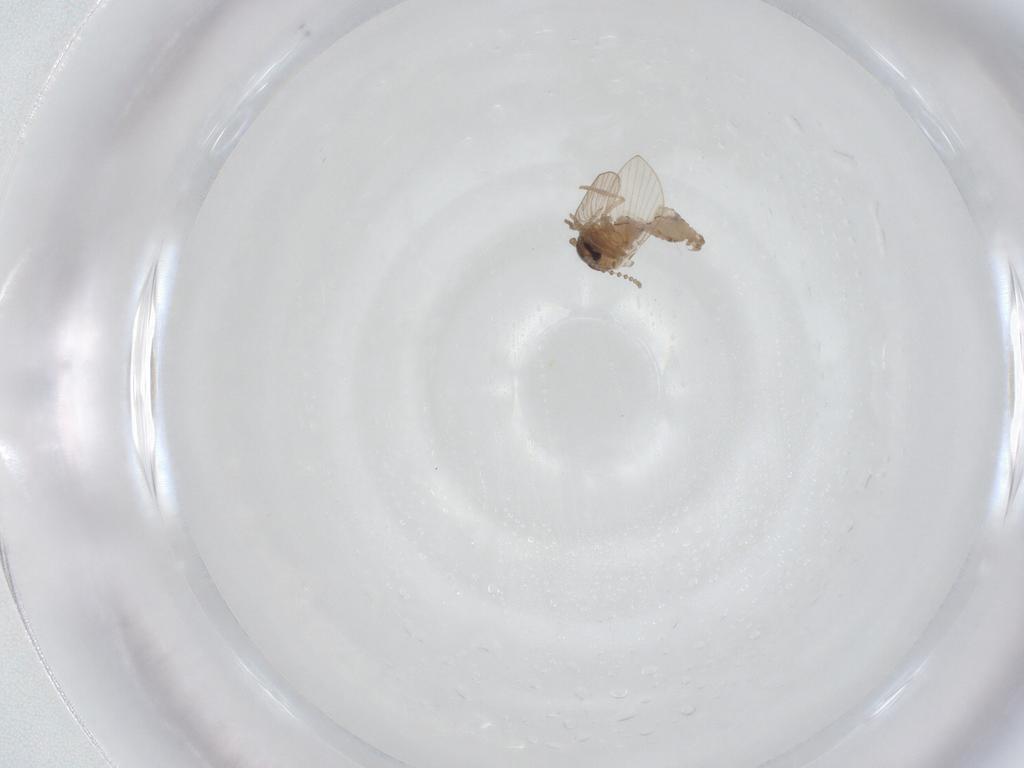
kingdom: Animalia
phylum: Arthropoda
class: Insecta
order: Diptera
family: Psychodidae
